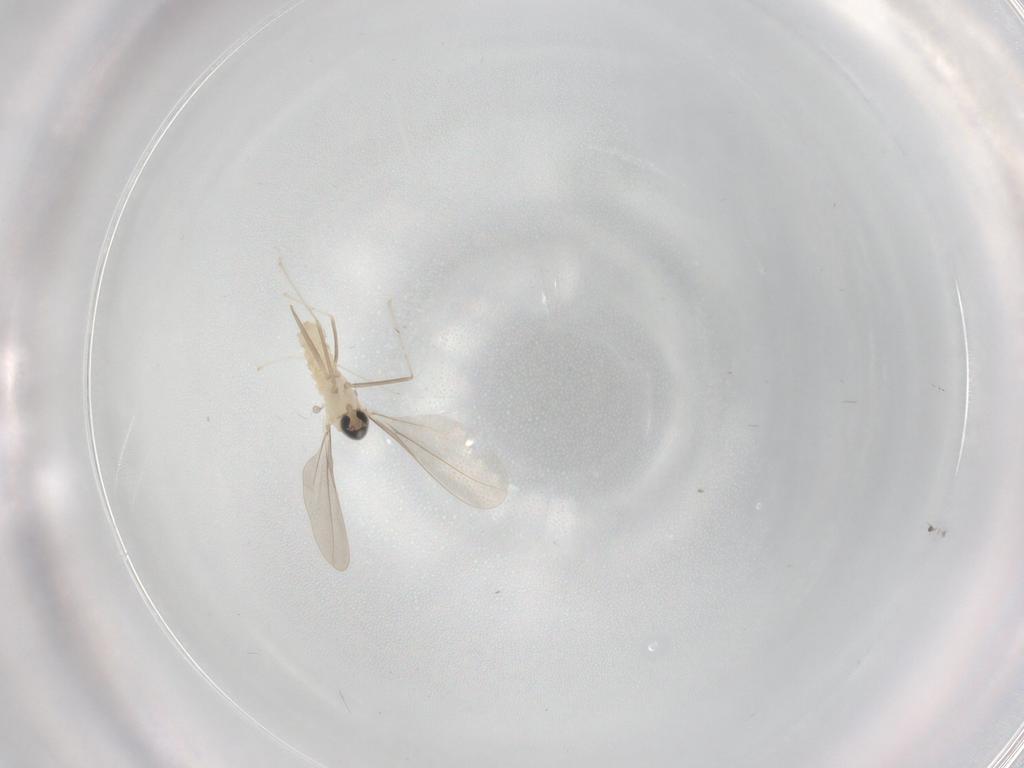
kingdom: Animalia
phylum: Arthropoda
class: Insecta
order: Diptera
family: Cecidomyiidae
